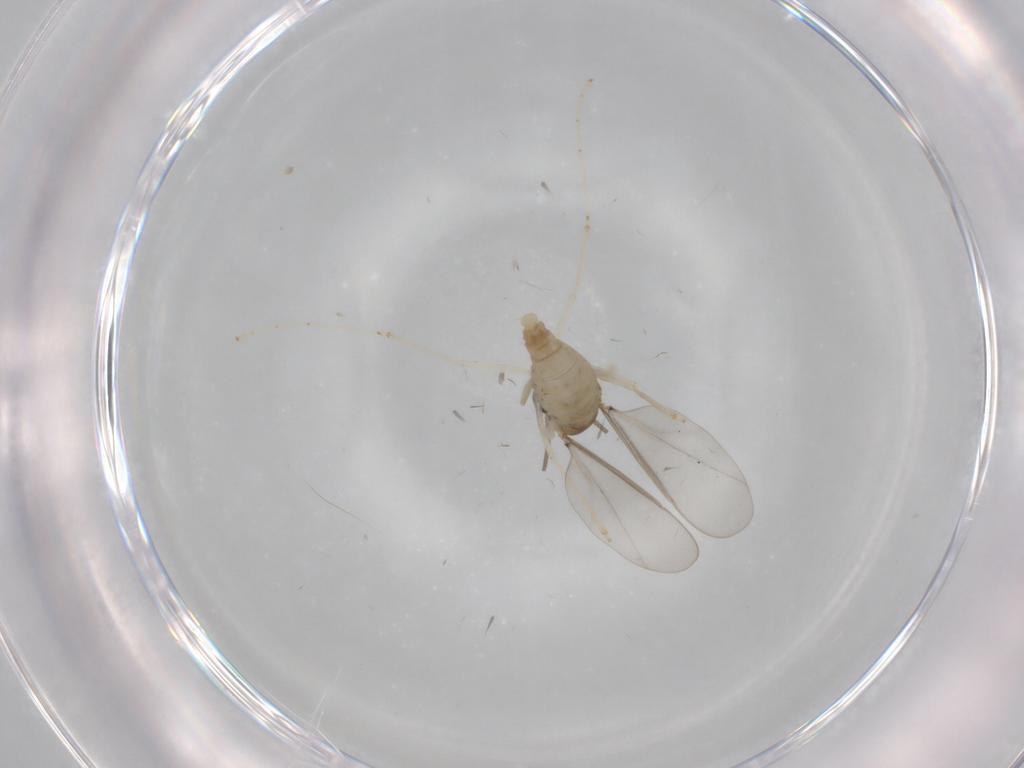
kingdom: Animalia
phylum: Arthropoda
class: Insecta
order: Diptera
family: Cecidomyiidae
